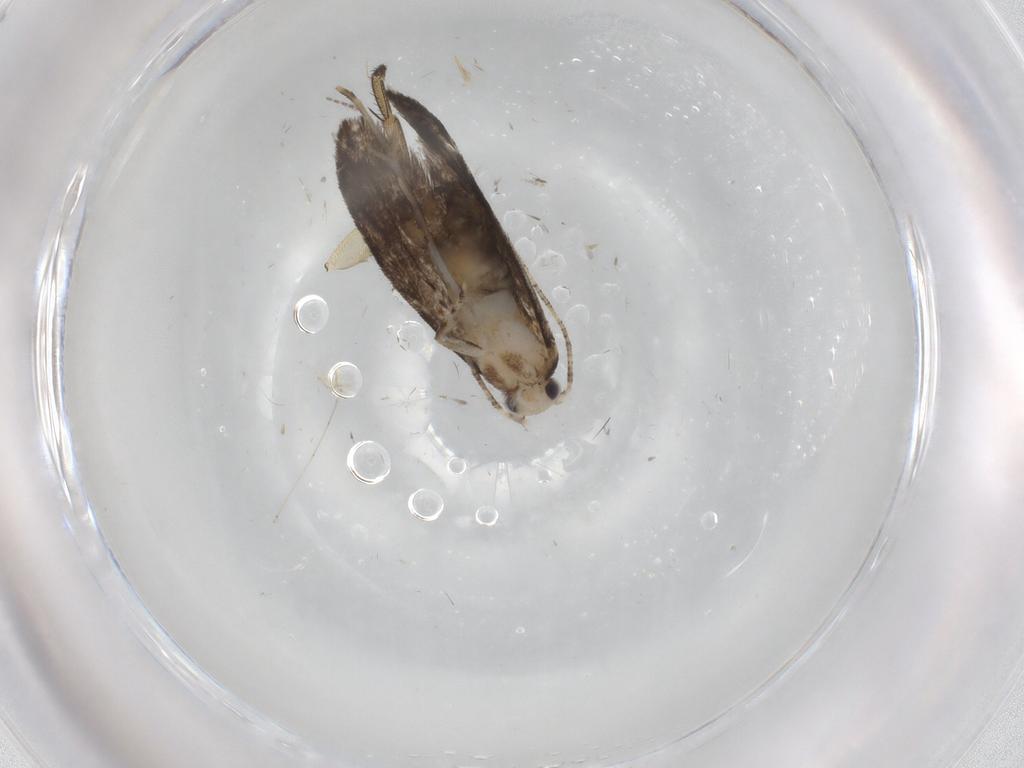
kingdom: Animalia
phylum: Arthropoda
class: Insecta
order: Lepidoptera
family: Tineidae
